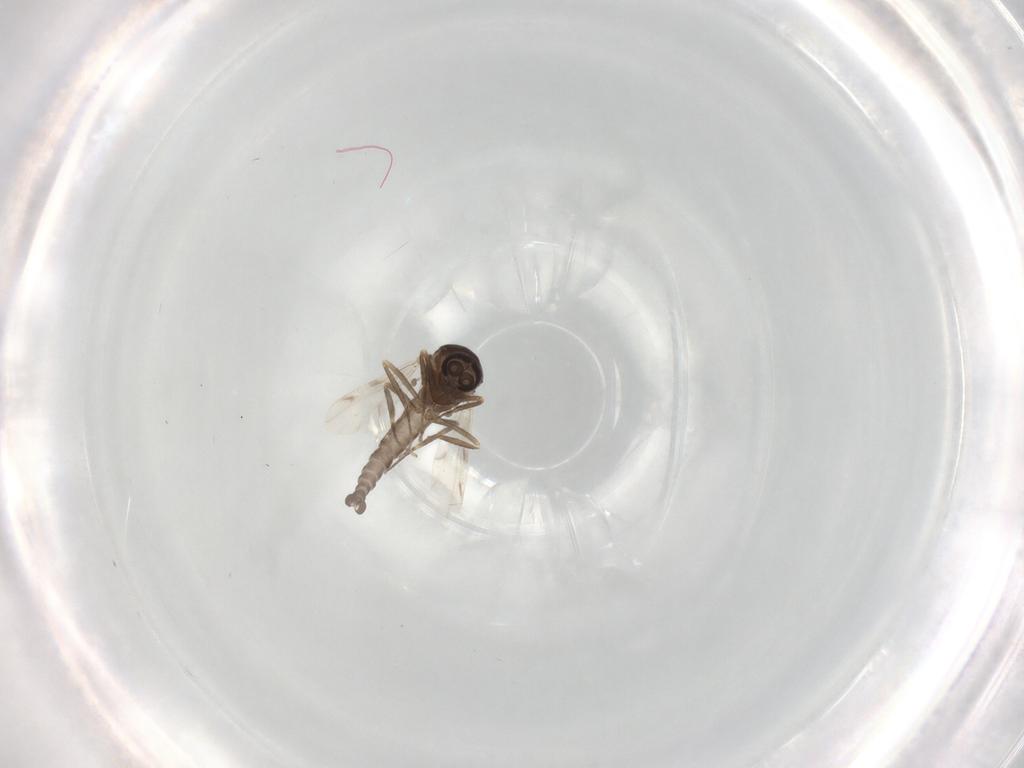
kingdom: Animalia
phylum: Arthropoda
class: Insecta
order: Diptera
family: Ceratopogonidae
